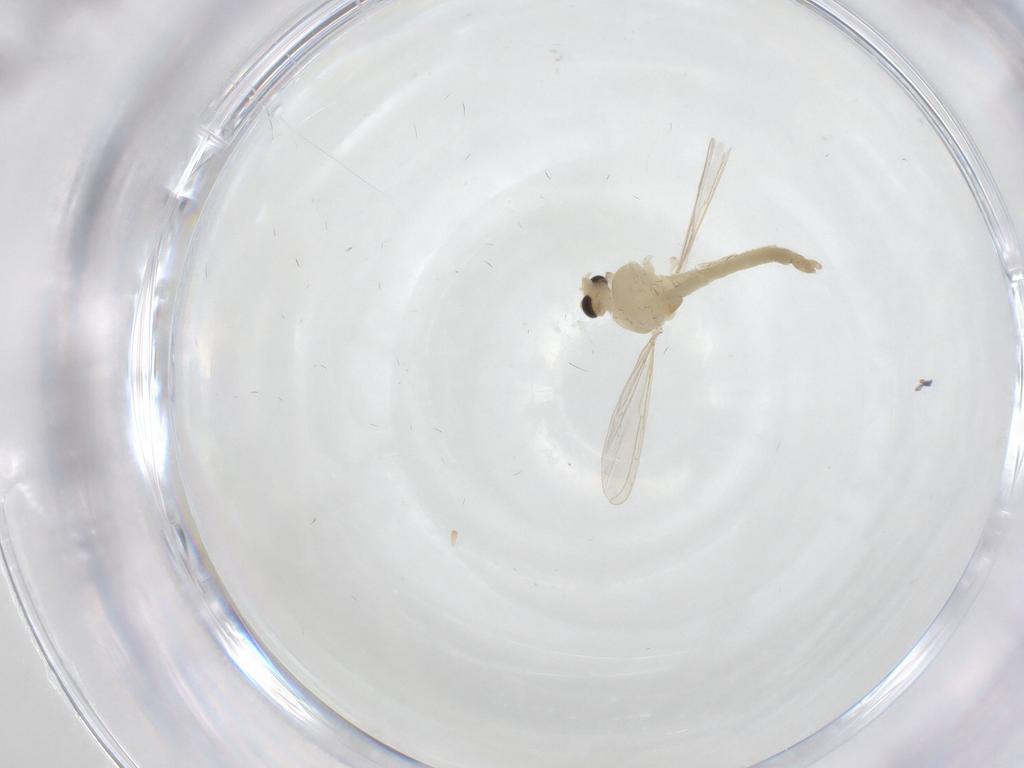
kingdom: Animalia
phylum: Arthropoda
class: Insecta
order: Diptera
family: Chironomidae
